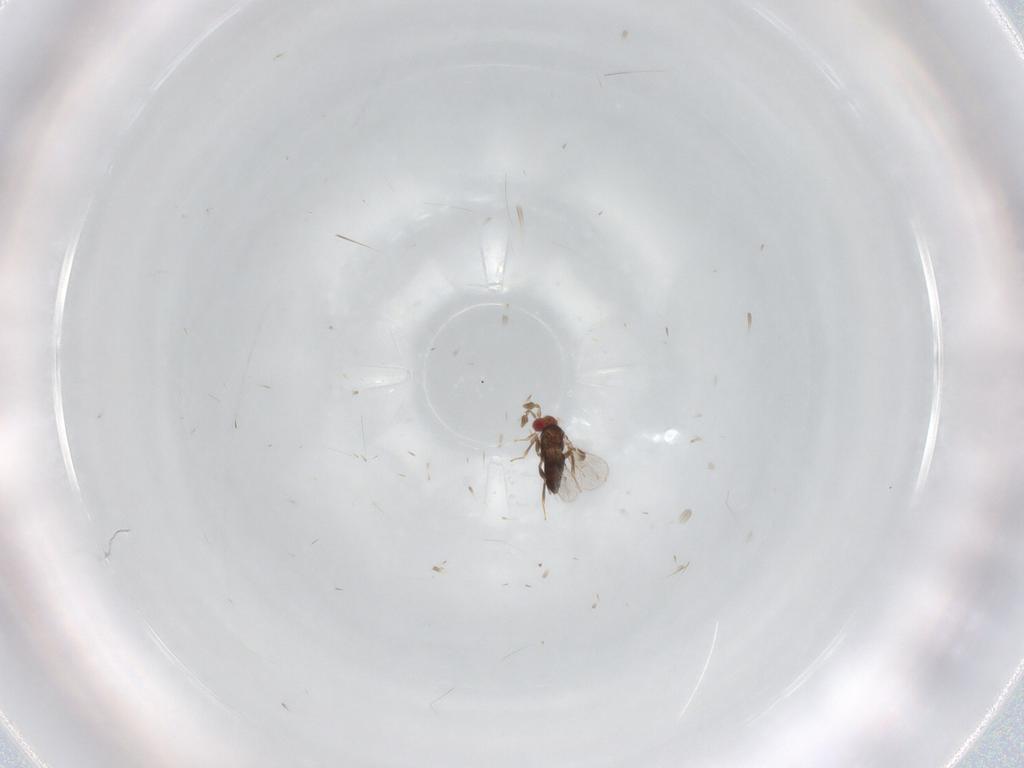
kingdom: Animalia
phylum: Arthropoda
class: Insecta
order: Hymenoptera
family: Trichogrammatidae
